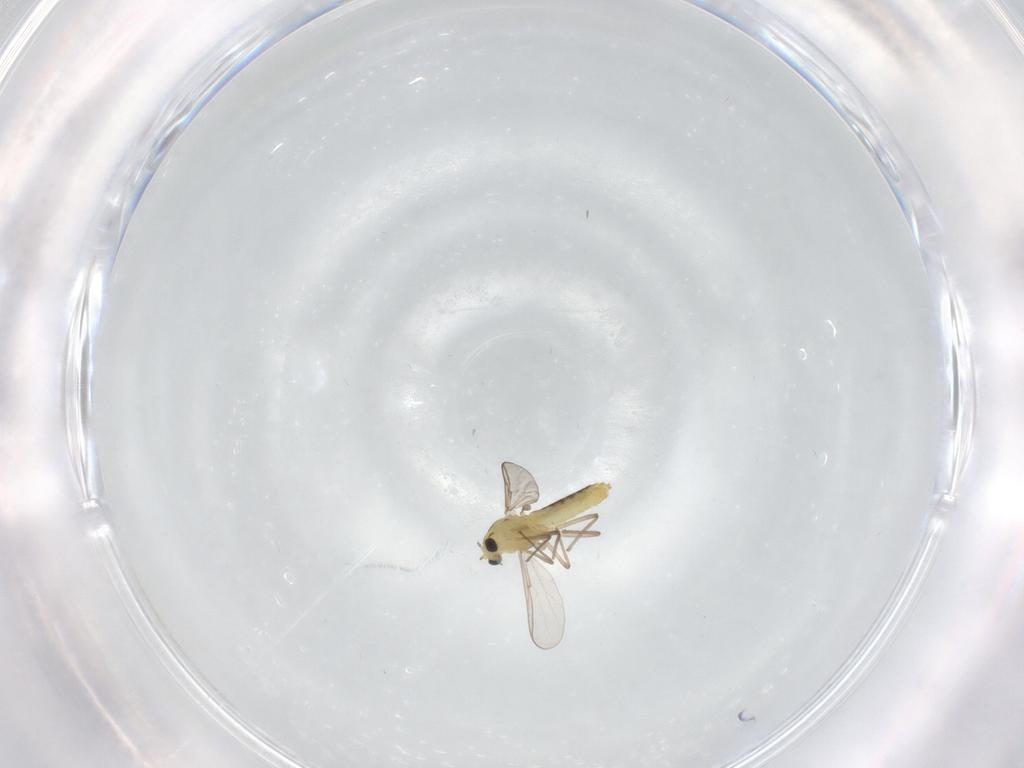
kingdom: Animalia
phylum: Arthropoda
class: Insecta
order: Diptera
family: Chironomidae
